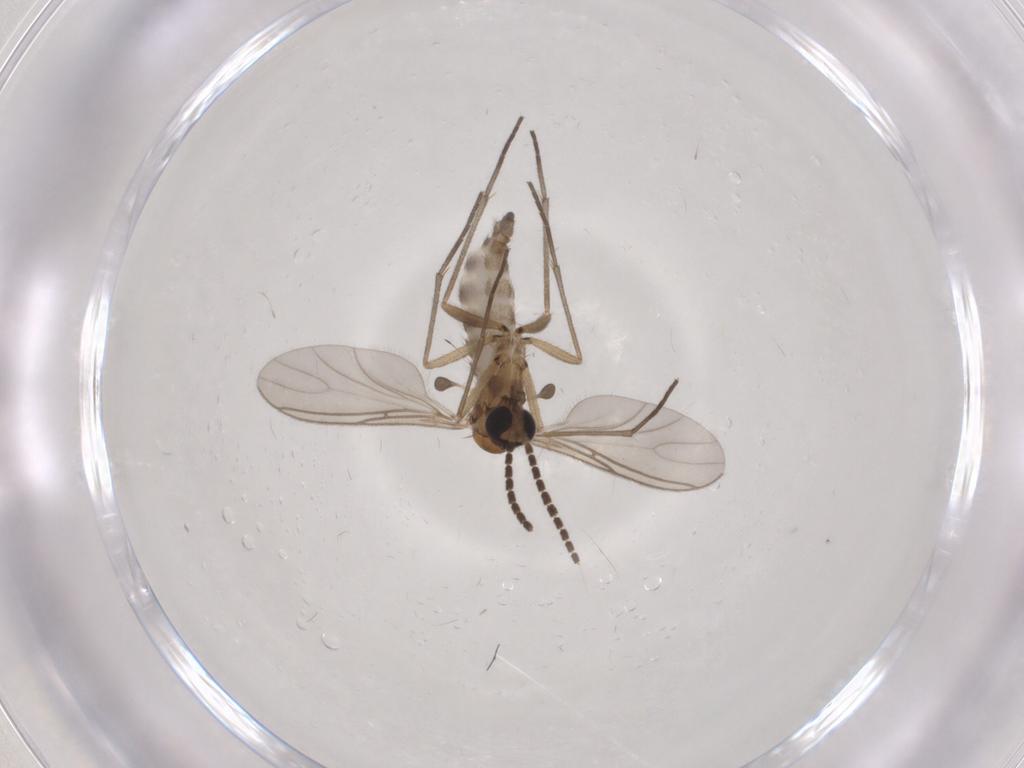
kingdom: Animalia
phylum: Arthropoda
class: Insecta
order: Diptera
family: Sciaridae
